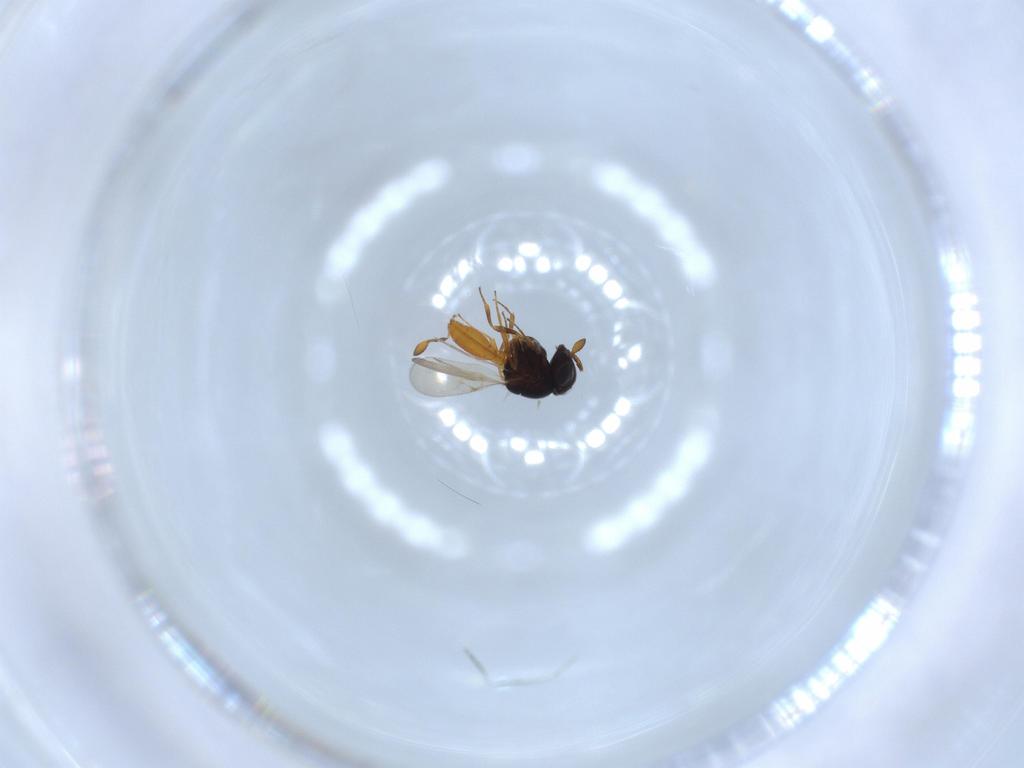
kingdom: Animalia
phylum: Arthropoda
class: Insecta
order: Hymenoptera
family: Scelionidae
